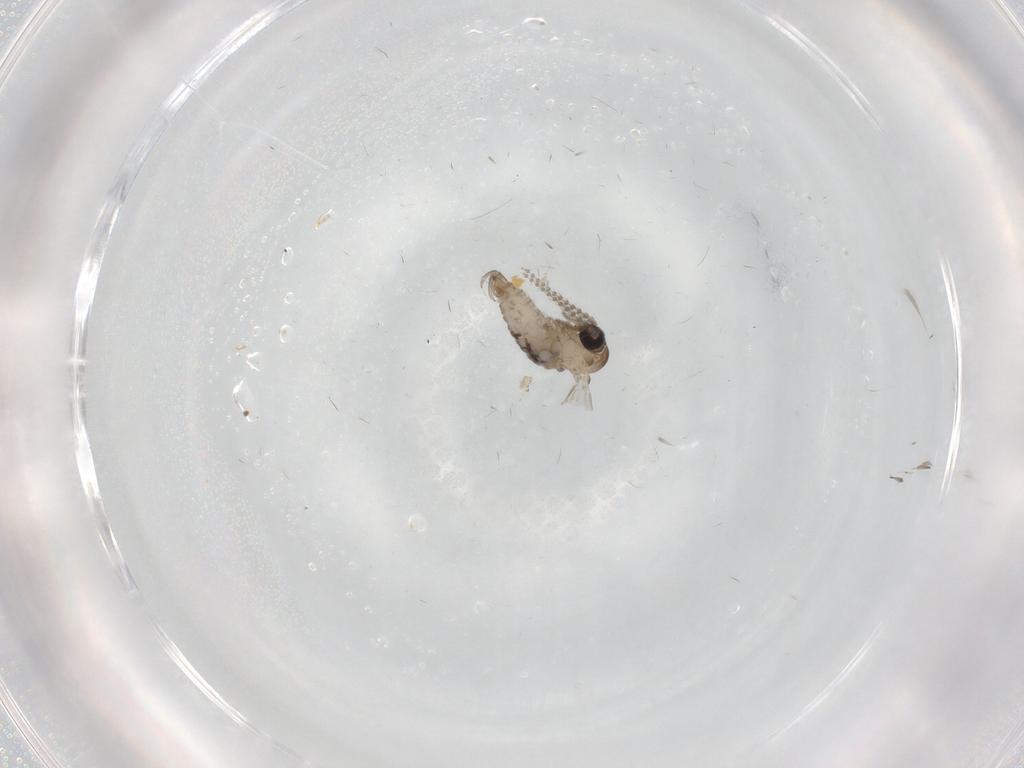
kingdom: Animalia
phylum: Arthropoda
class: Insecta
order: Diptera
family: Psychodidae
